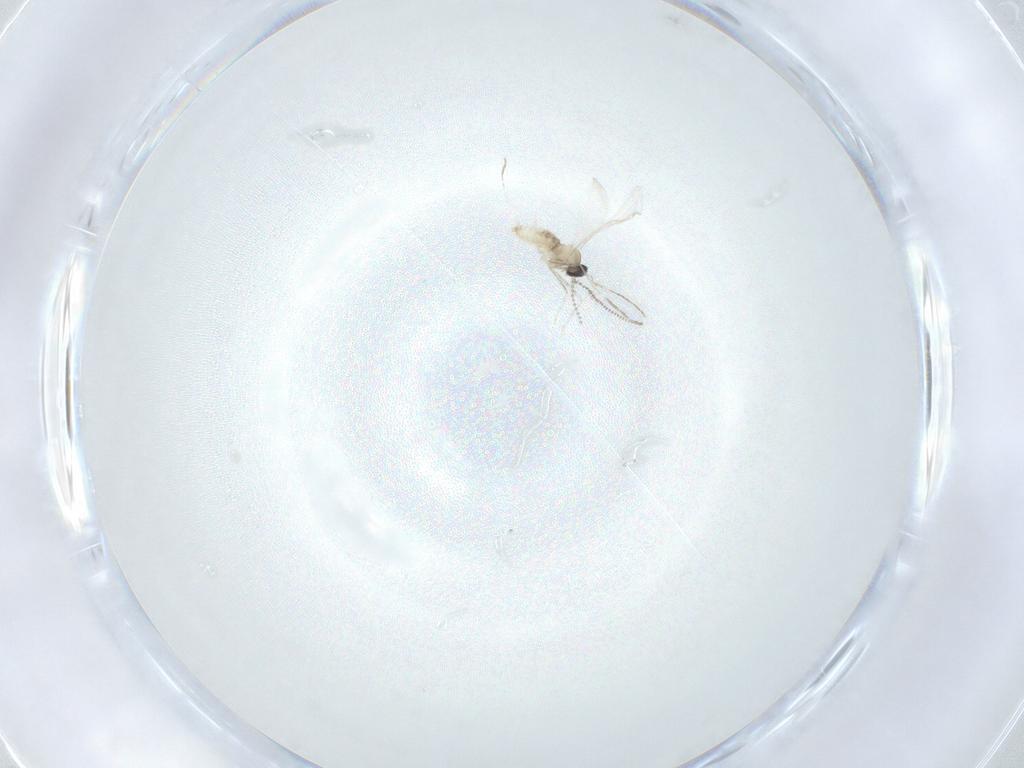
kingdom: Animalia
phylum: Arthropoda
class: Insecta
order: Diptera
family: Cecidomyiidae
